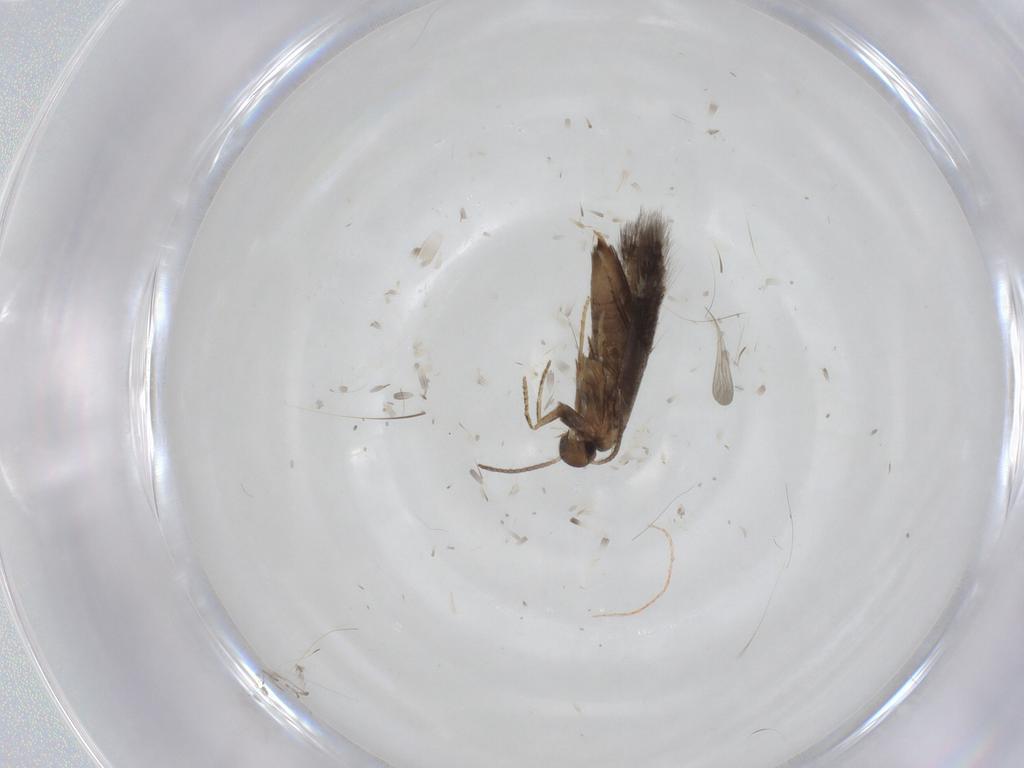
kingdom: Animalia
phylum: Arthropoda
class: Insecta
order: Lepidoptera
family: Heliozelidae
